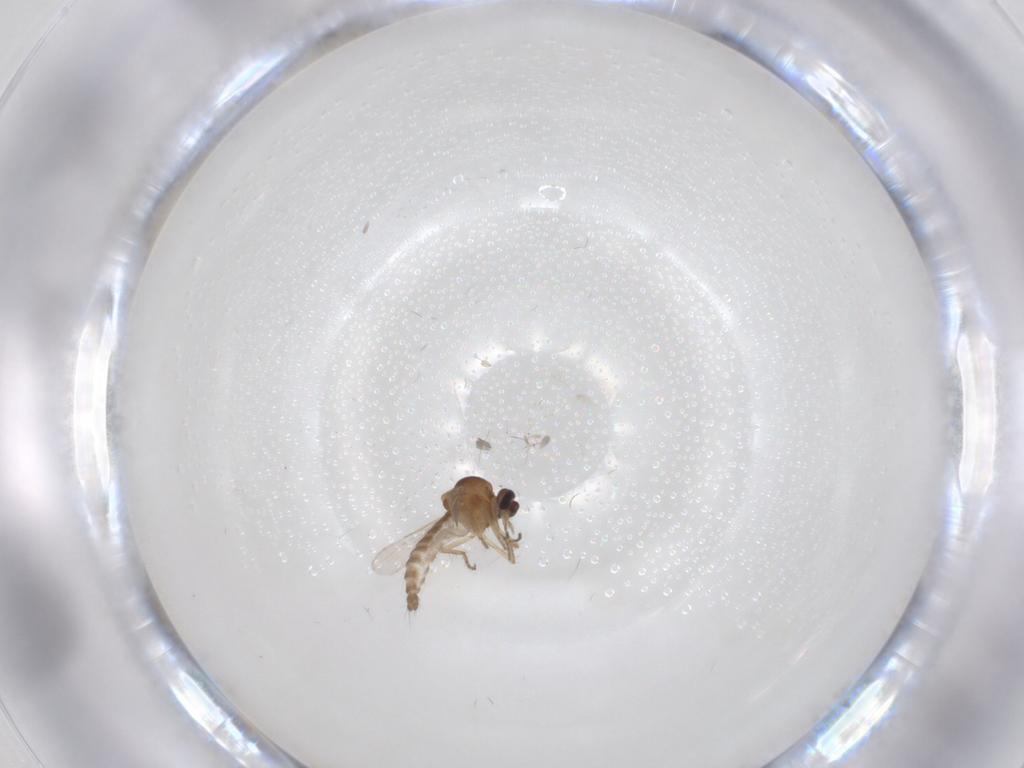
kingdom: Animalia
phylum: Arthropoda
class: Insecta
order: Diptera
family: Ceratopogonidae
